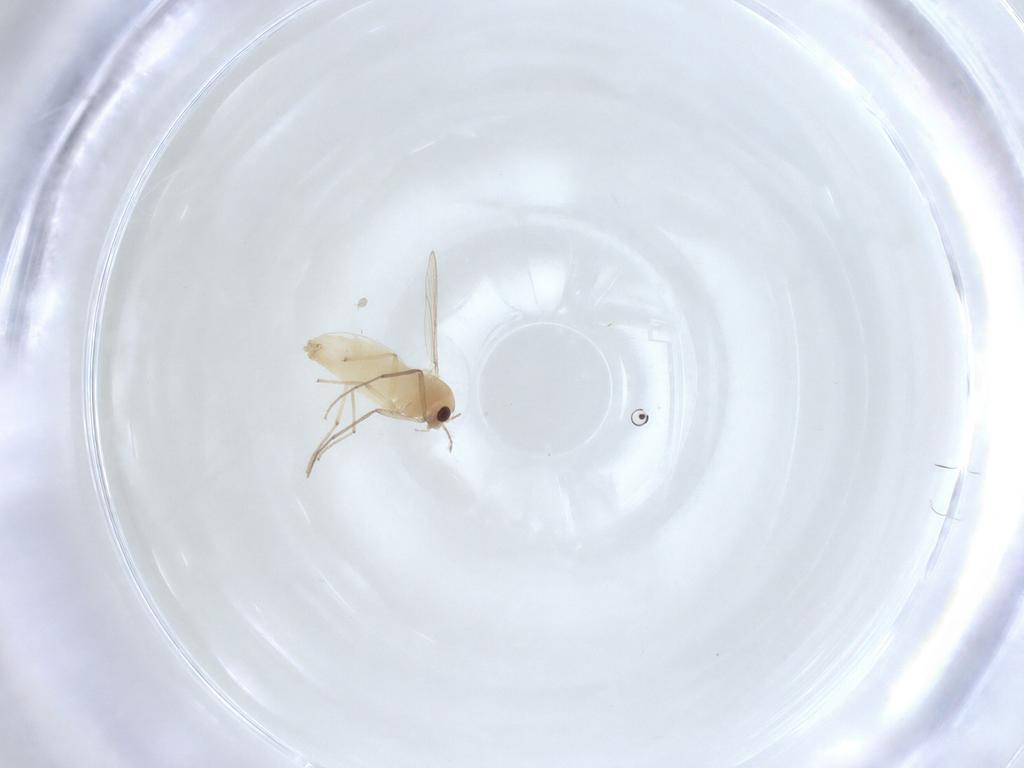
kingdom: Animalia
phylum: Arthropoda
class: Insecta
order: Diptera
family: Chironomidae
